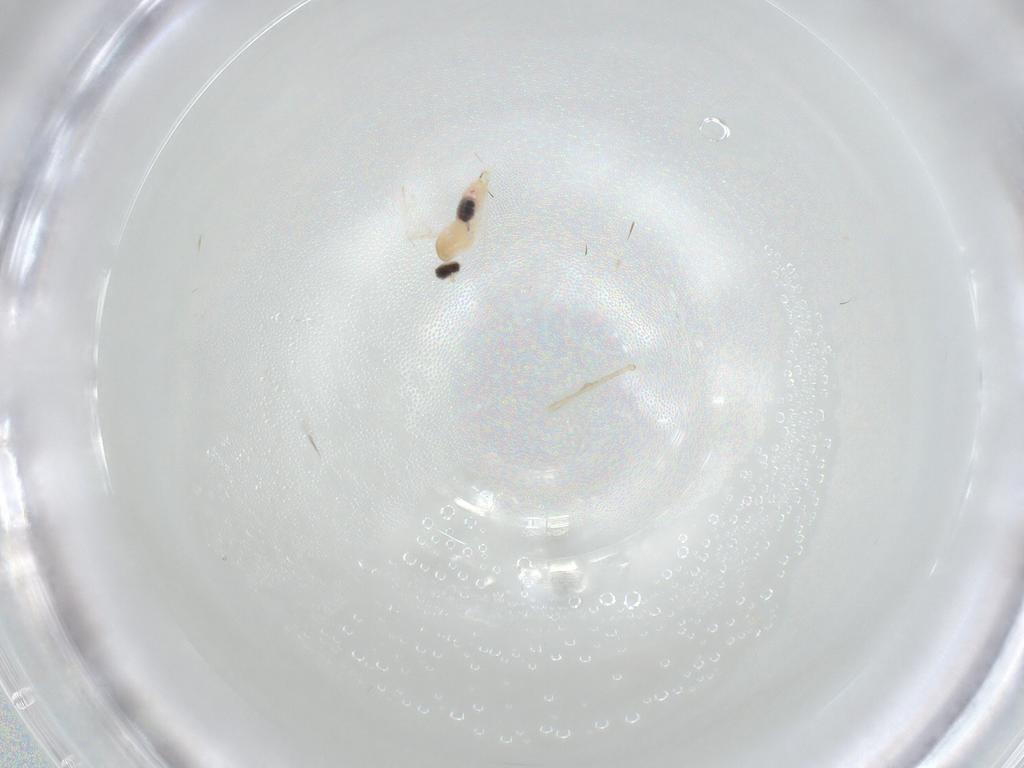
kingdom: Animalia
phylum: Arthropoda
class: Insecta
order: Diptera
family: Cecidomyiidae
